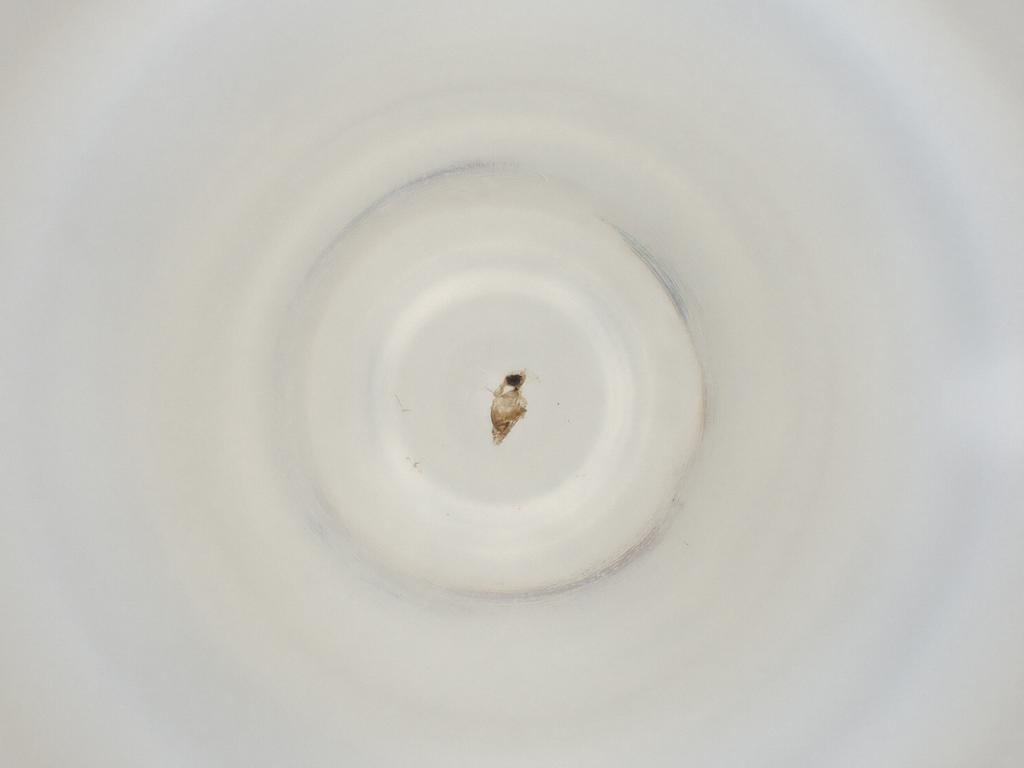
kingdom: Animalia
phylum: Arthropoda
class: Insecta
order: Diptera
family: Cecidomyiidae
